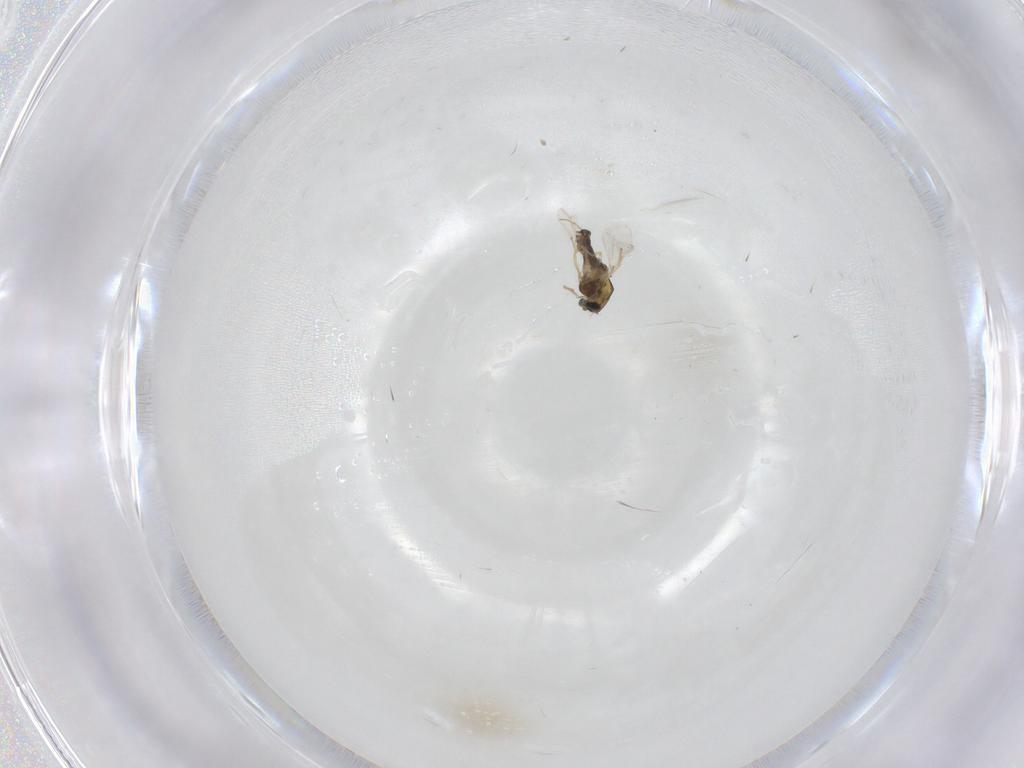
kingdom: Animalia
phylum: Arthropoda
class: Insecta
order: Diptera
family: Chironomidae
